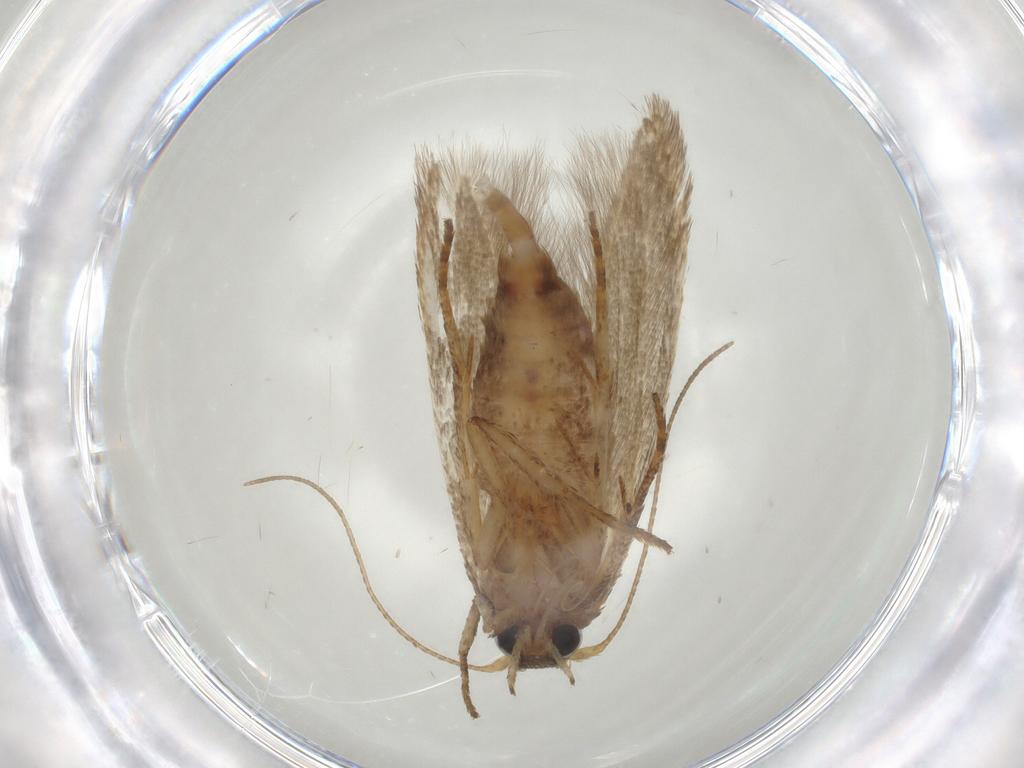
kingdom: Animalia
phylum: Arthropoda
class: Insecta
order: Lepidoptera
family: Blastobasidae
